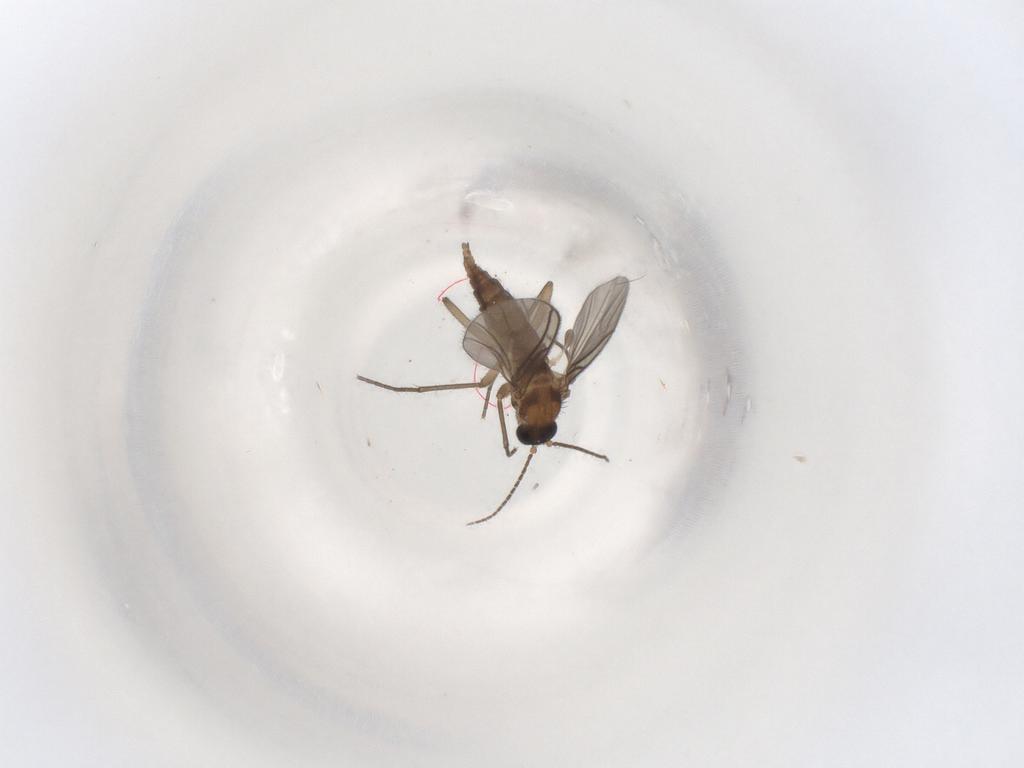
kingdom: Animalia
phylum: Arthropoda
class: Insecta
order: Diptera
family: Sciaridae
